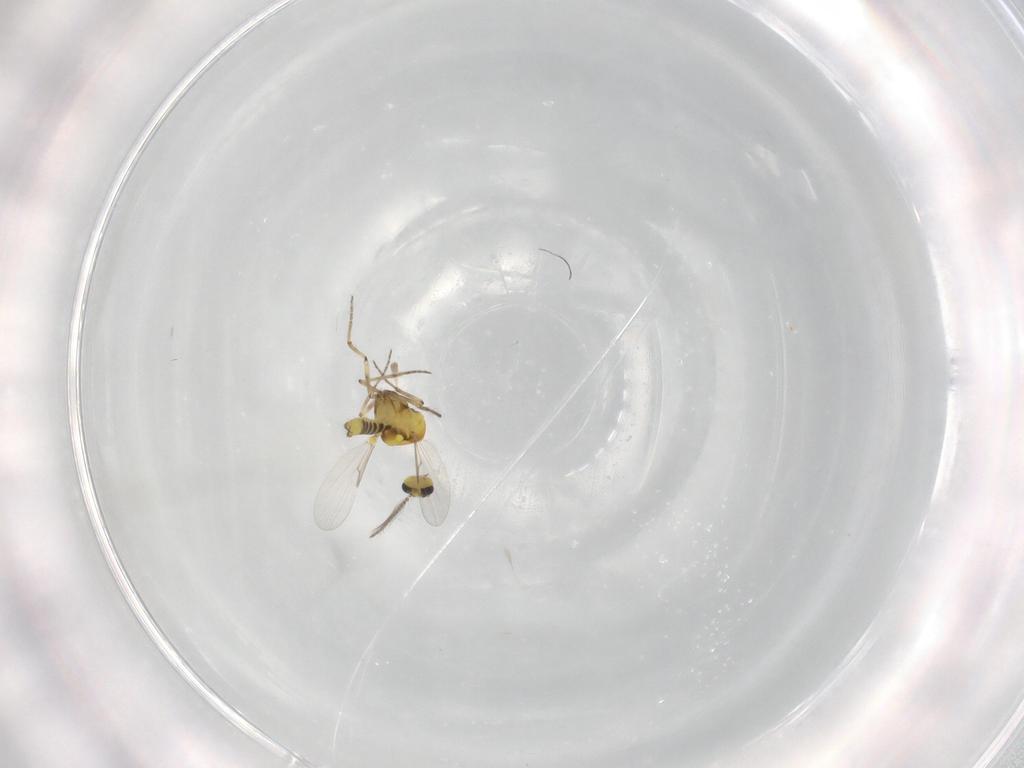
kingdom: Animalia
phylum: Arthropoda
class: Insecta
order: Diptera
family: Ceratopogonidae
